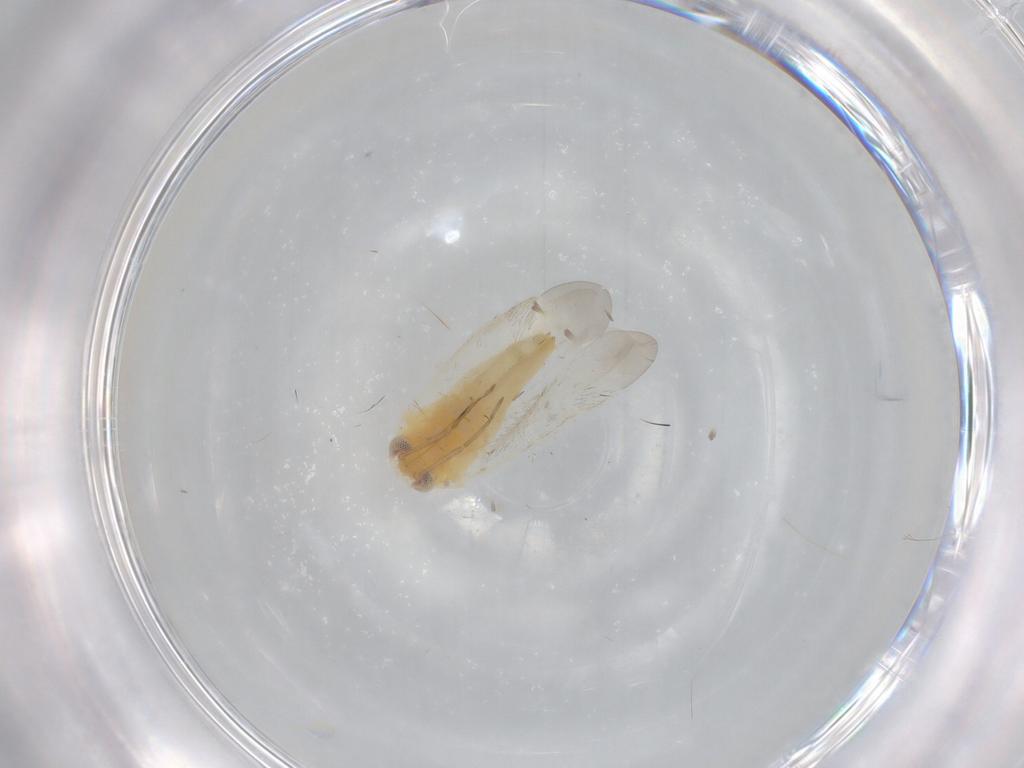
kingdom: Animalia
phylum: Arthropoda
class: Insecta
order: Hemiptera
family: Miridae
